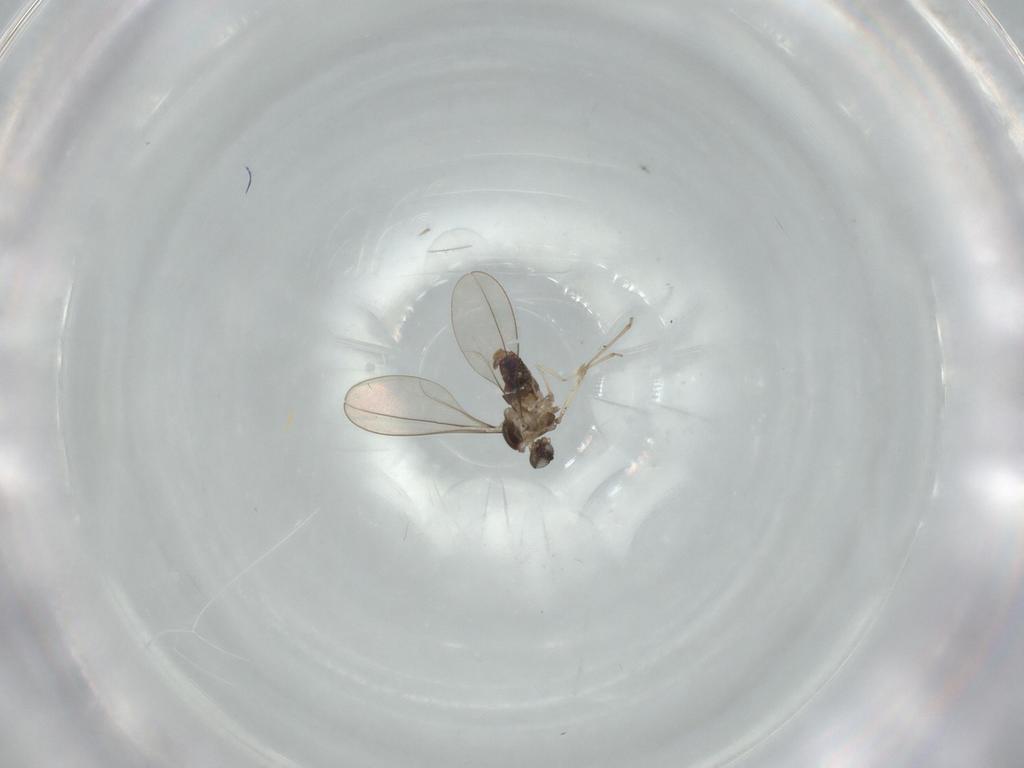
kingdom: Animalia
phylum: Arthropoda
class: Insecta
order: Diptera
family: Cecidomyiidae
